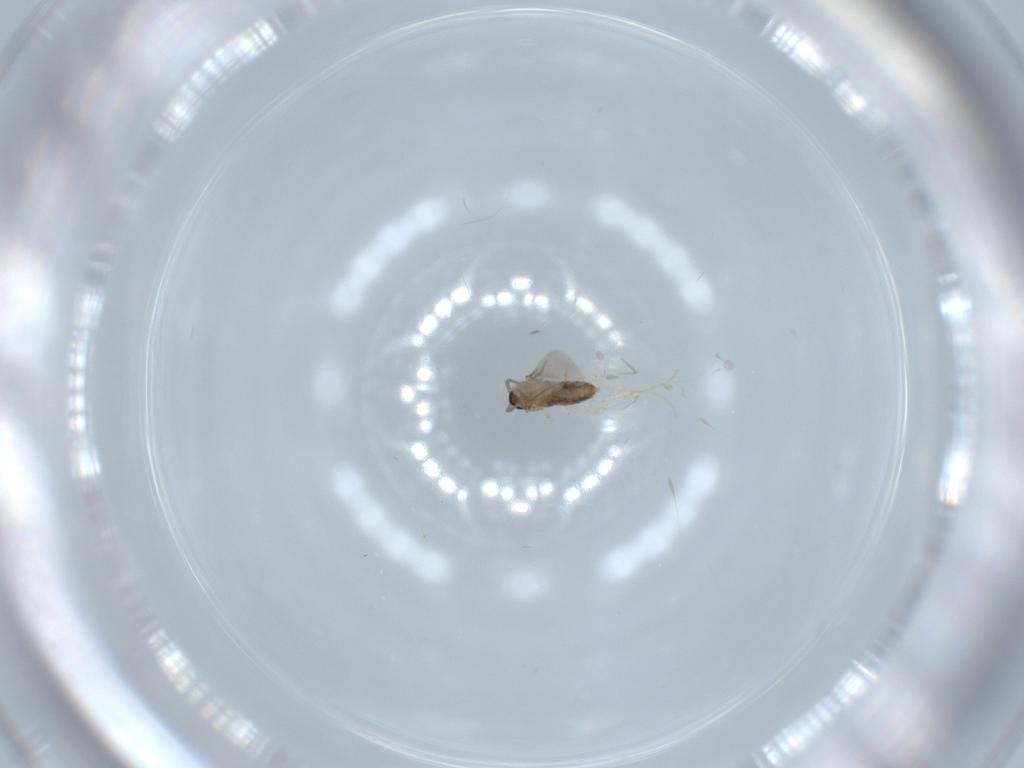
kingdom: Animalia
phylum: Arthropoda
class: Insecta
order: Diptera
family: Cecidomyiidae
